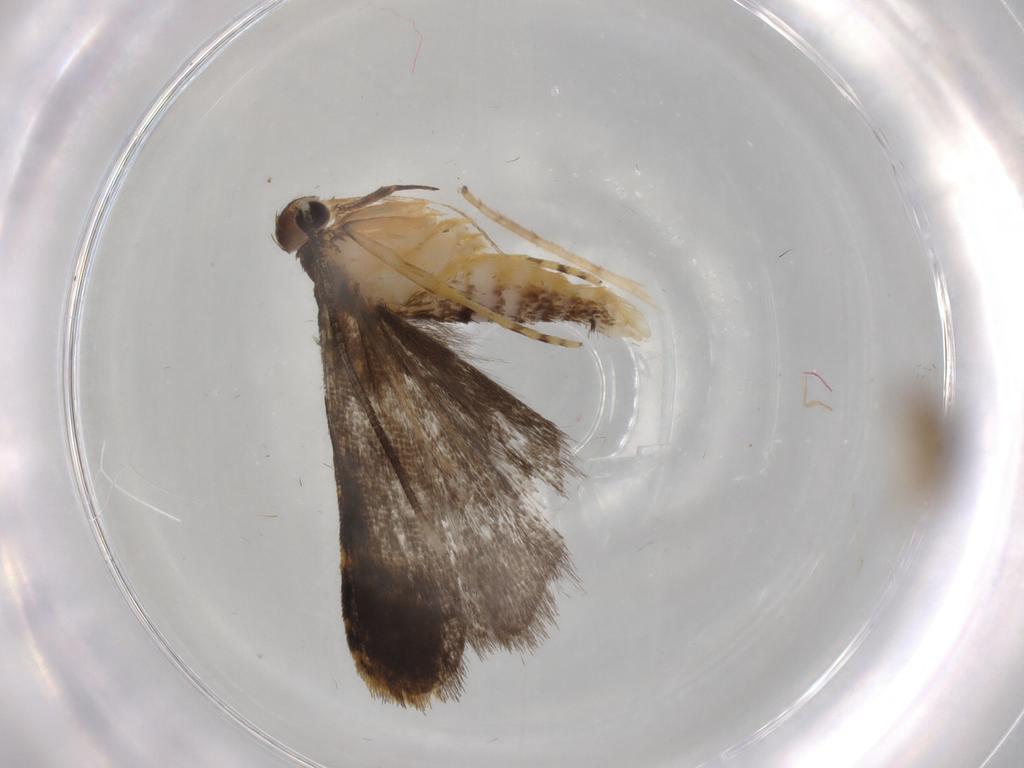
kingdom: Animalia
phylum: Arthropoda
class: Insecta
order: Lepidoptera
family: Cosmopterigidae
